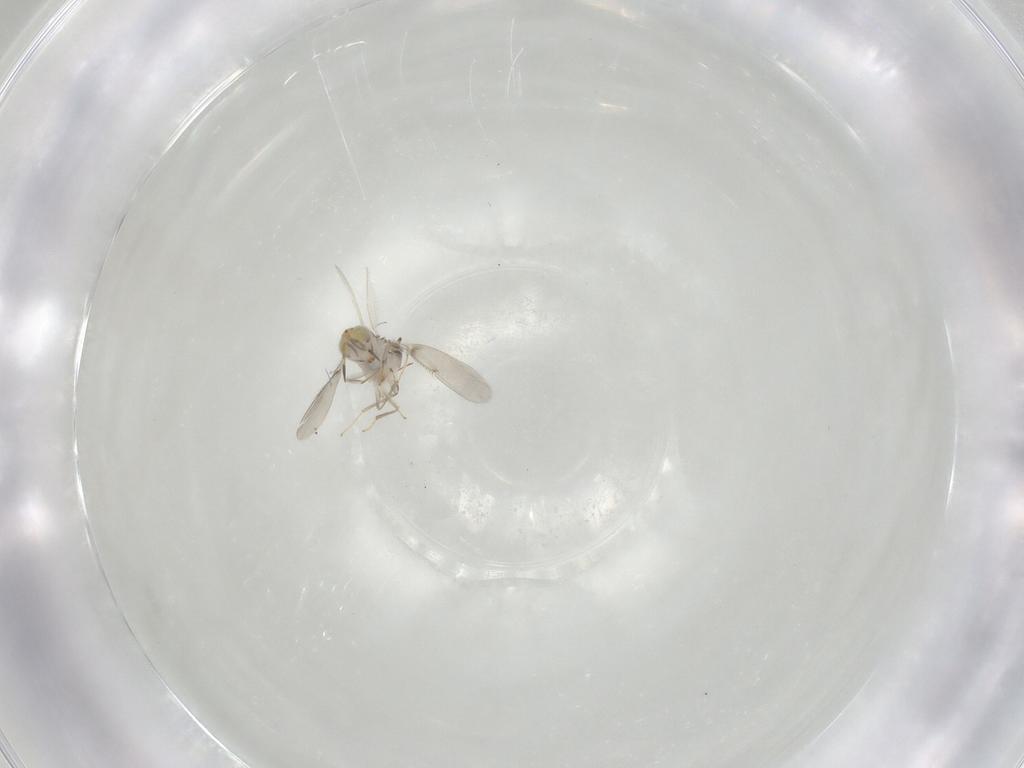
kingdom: Animalia
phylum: Arthropoda
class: Insecta
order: Hymenoptera
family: Aphelinidae
